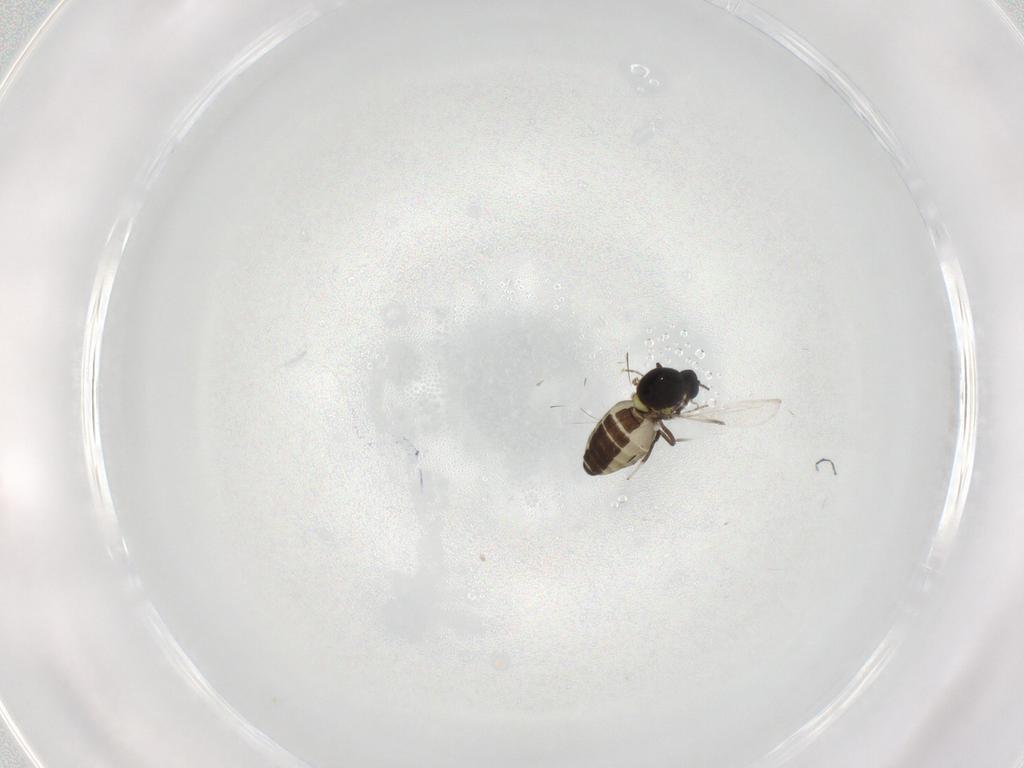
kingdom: Animalia
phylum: Arthropoda
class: Insecta
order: Diptera
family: Ceratopogonidae
